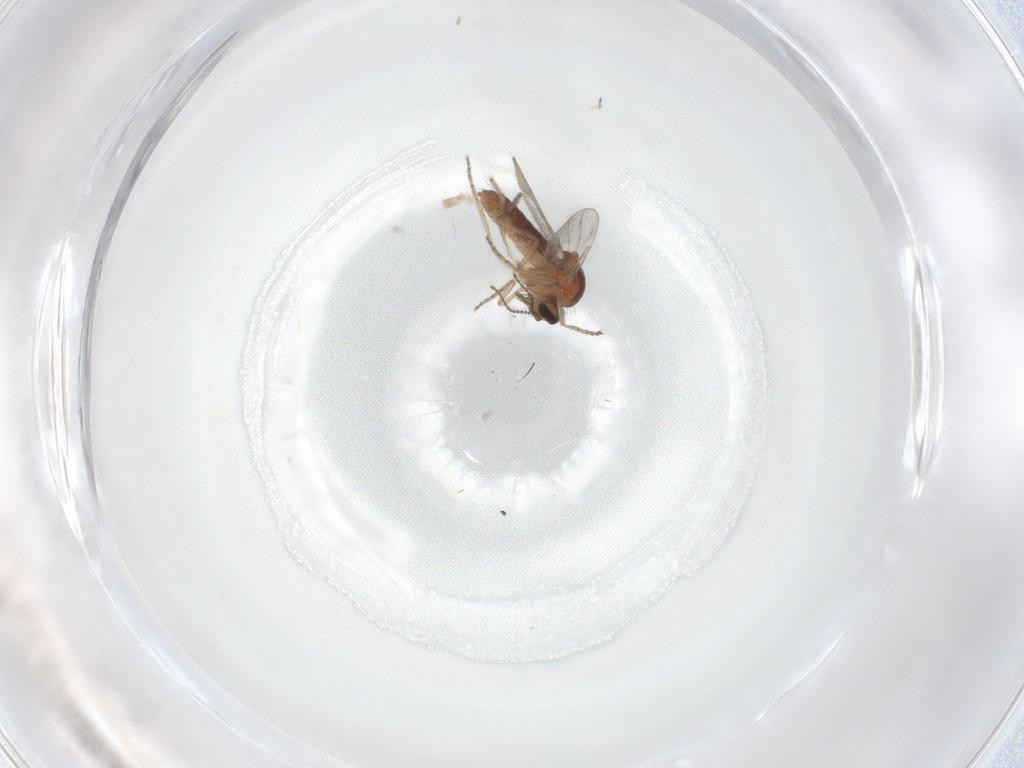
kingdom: Animalia
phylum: Arthropoda
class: Insecta
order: Diptera
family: Ceratopogonidae
